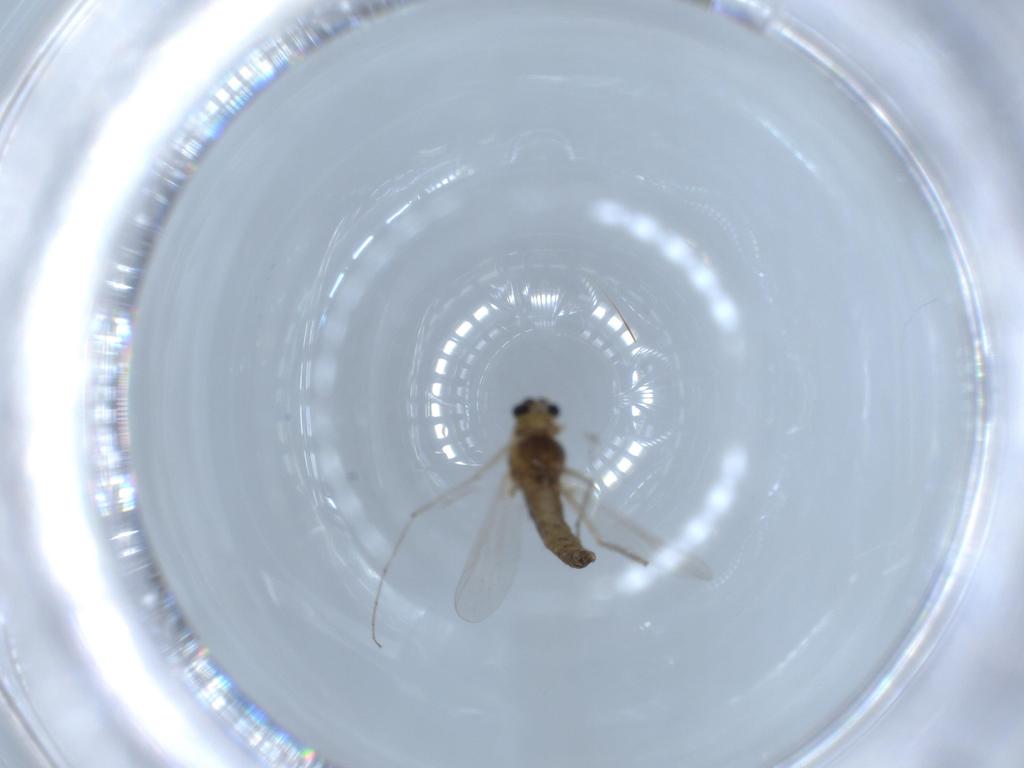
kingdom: Animalia
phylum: Arthropoda
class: Insecta
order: Diptera
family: Chironomidae
